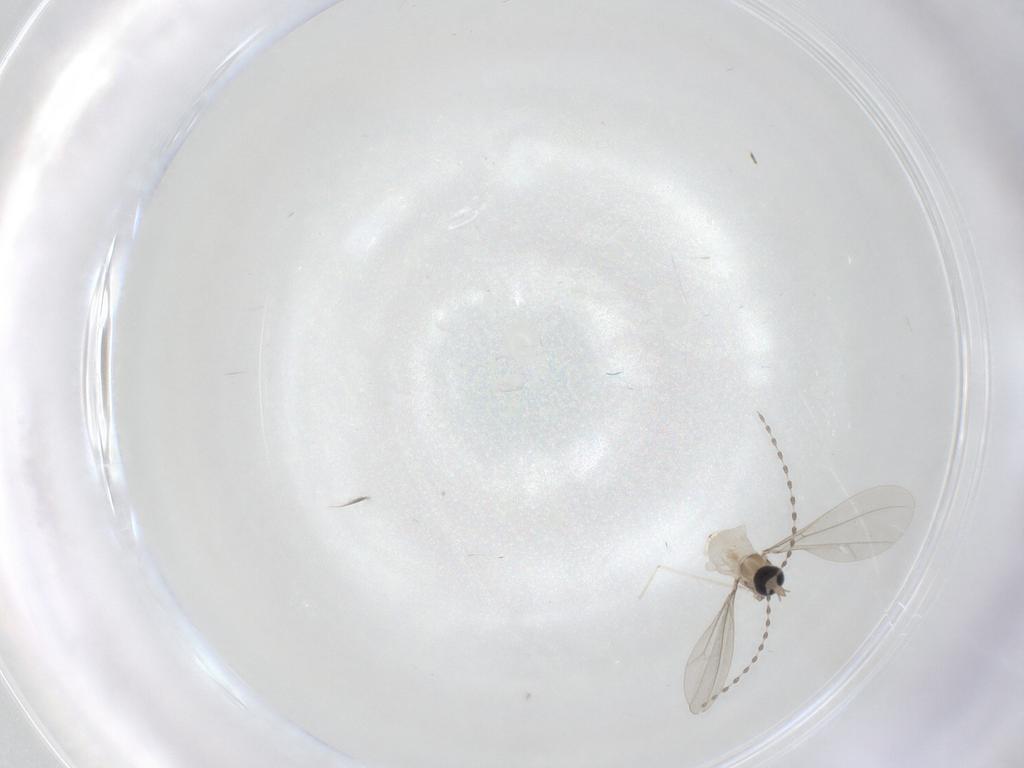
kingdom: Animalia
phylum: Arthropoda
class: Insecta
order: Diptera
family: Cecidomyiidae
